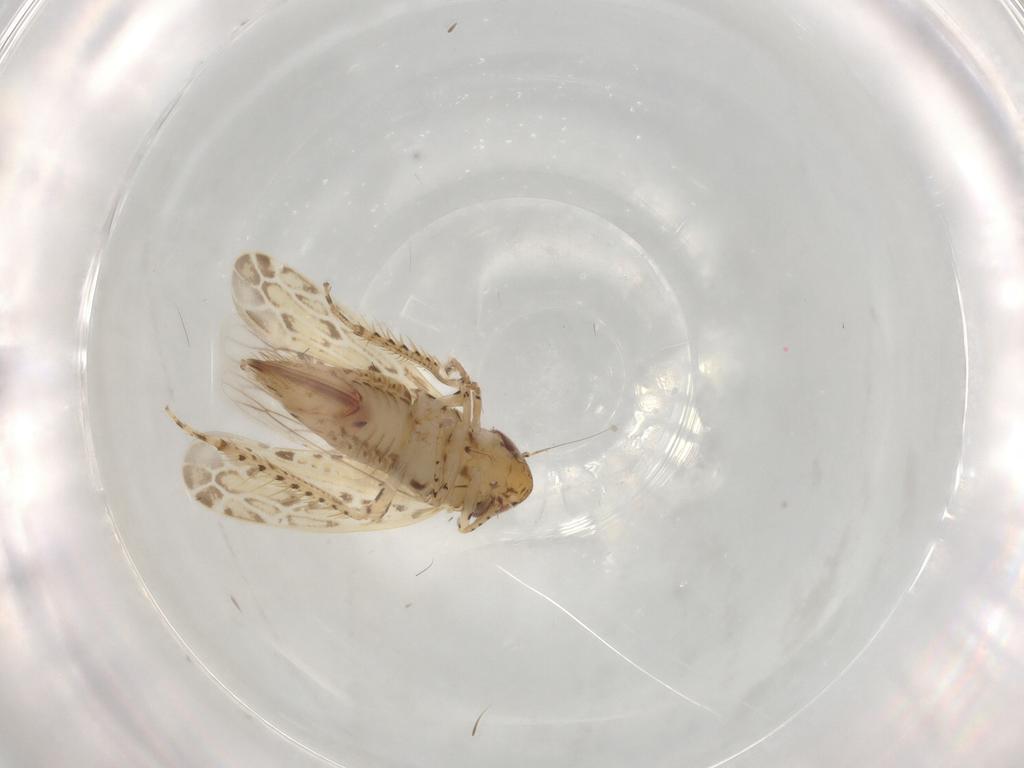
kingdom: Animalia
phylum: Arthropoda
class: Insecta
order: Hemiptera
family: Cicadellidae
